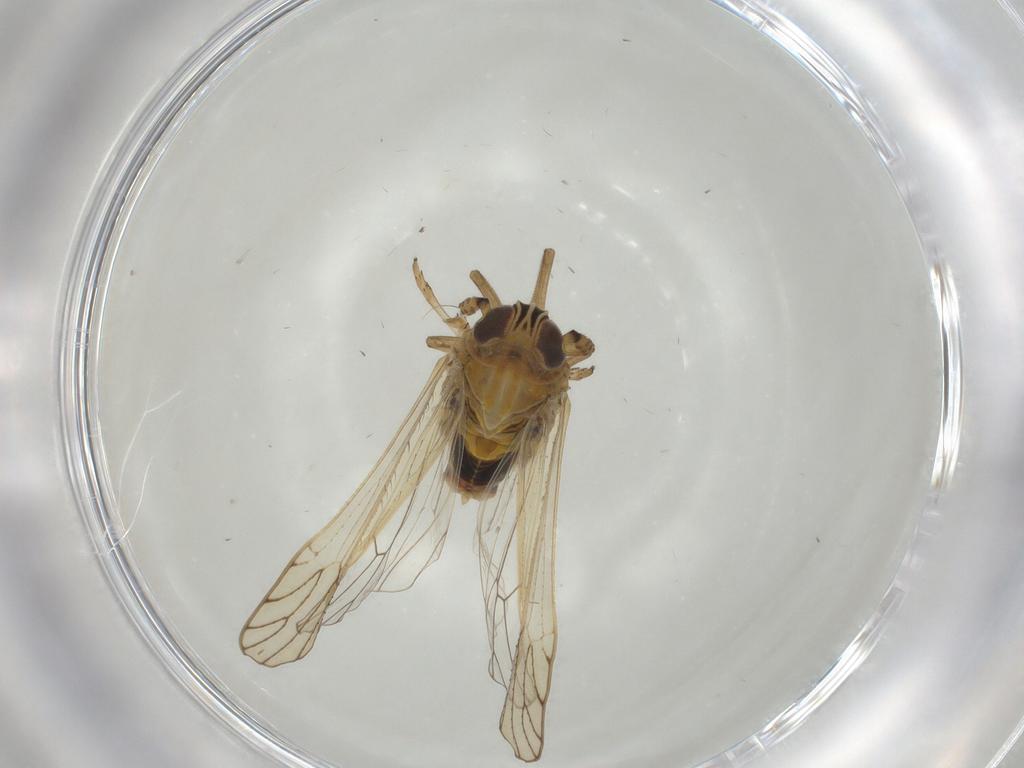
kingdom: Animalia
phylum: Arthropoda
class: Insecta
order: Hemiptera
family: Delphacidae
